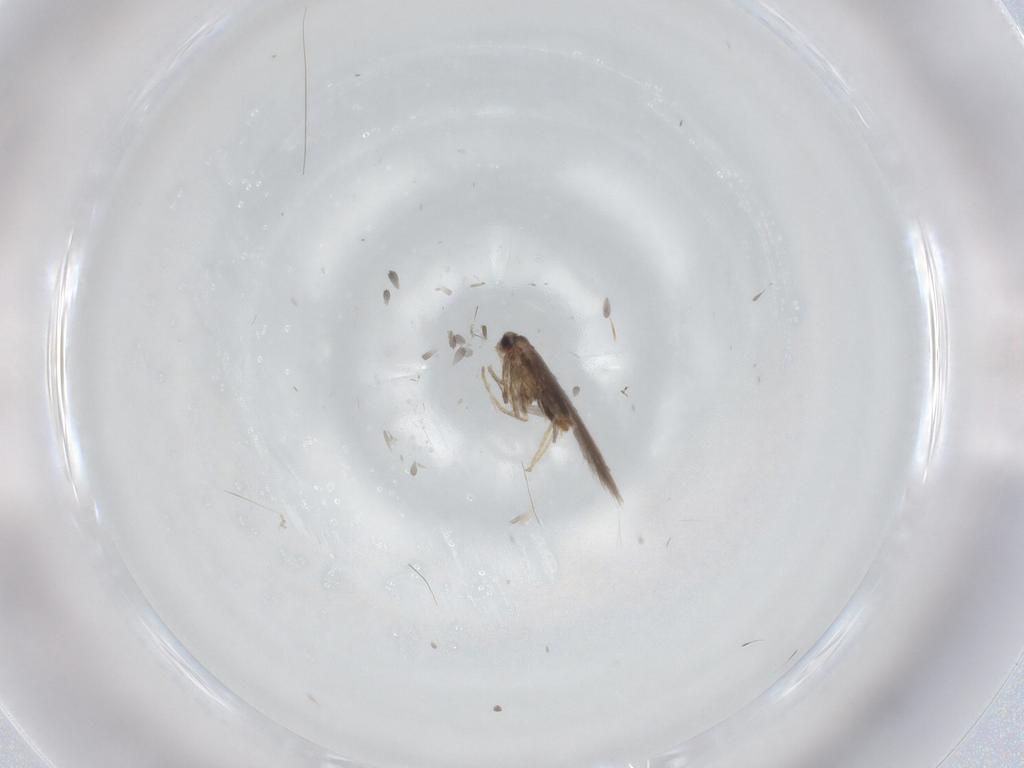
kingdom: Animalia
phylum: Arthropoda
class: Insecta
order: Lepidoptera
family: Nepticulidae
